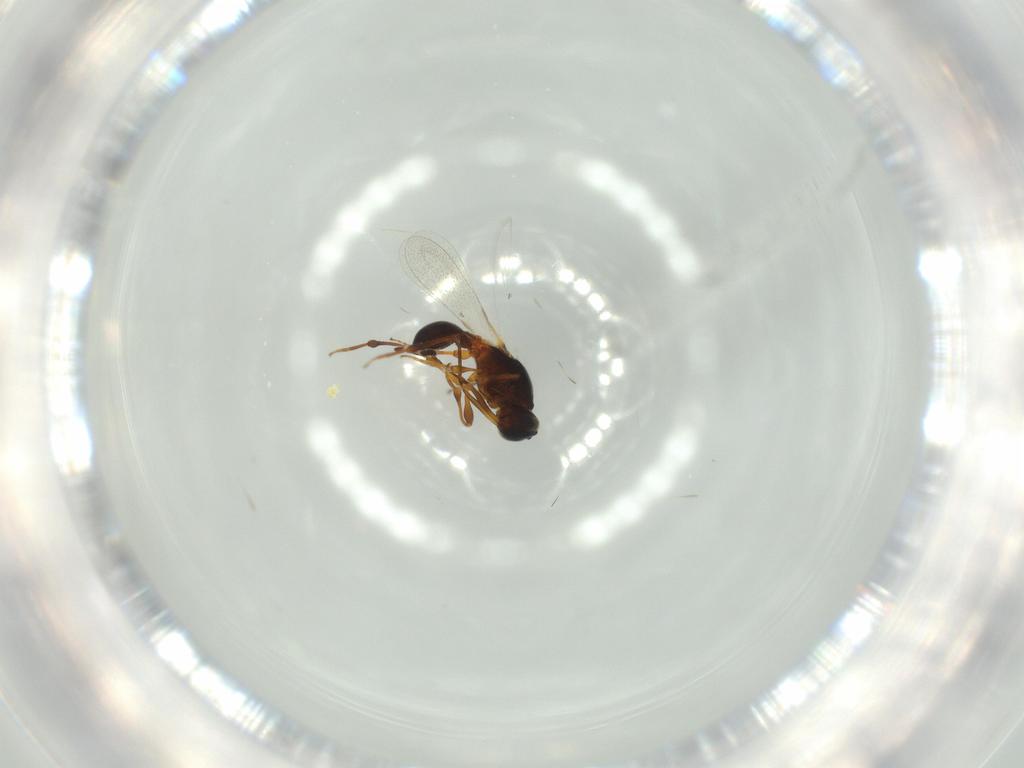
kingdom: Animalia
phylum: Arthropoda
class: Insecta
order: Hymenoptera
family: Platygastridae
